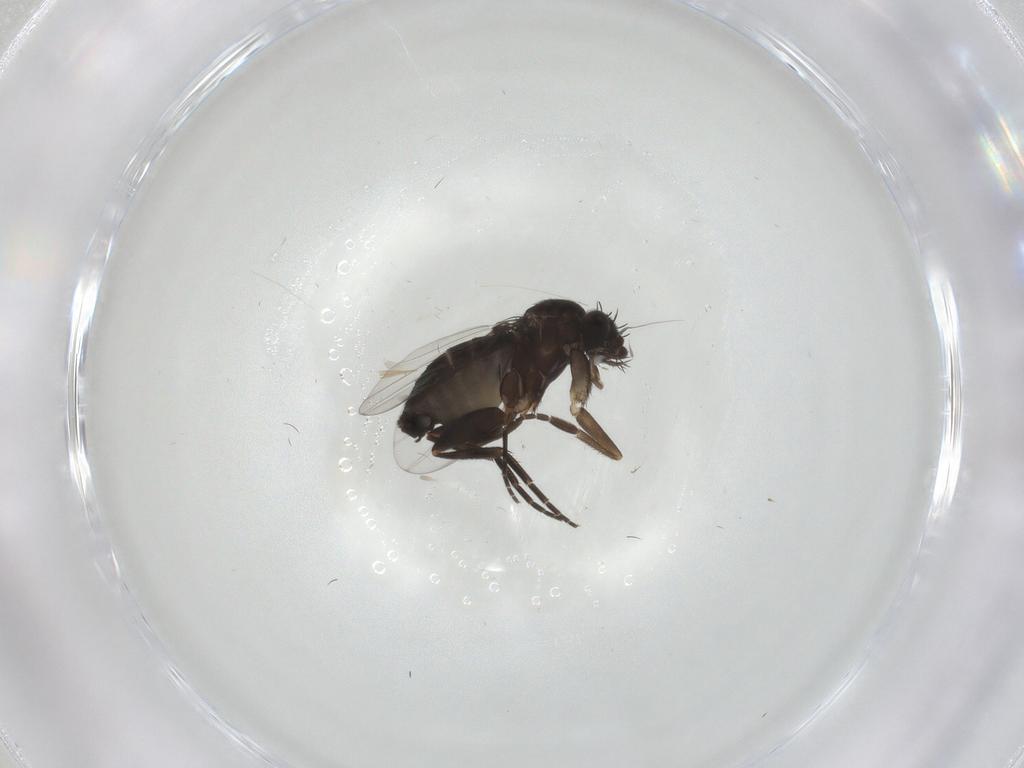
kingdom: Animalia
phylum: Arthropoda
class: Insecta
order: Diptera
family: Phoridae
